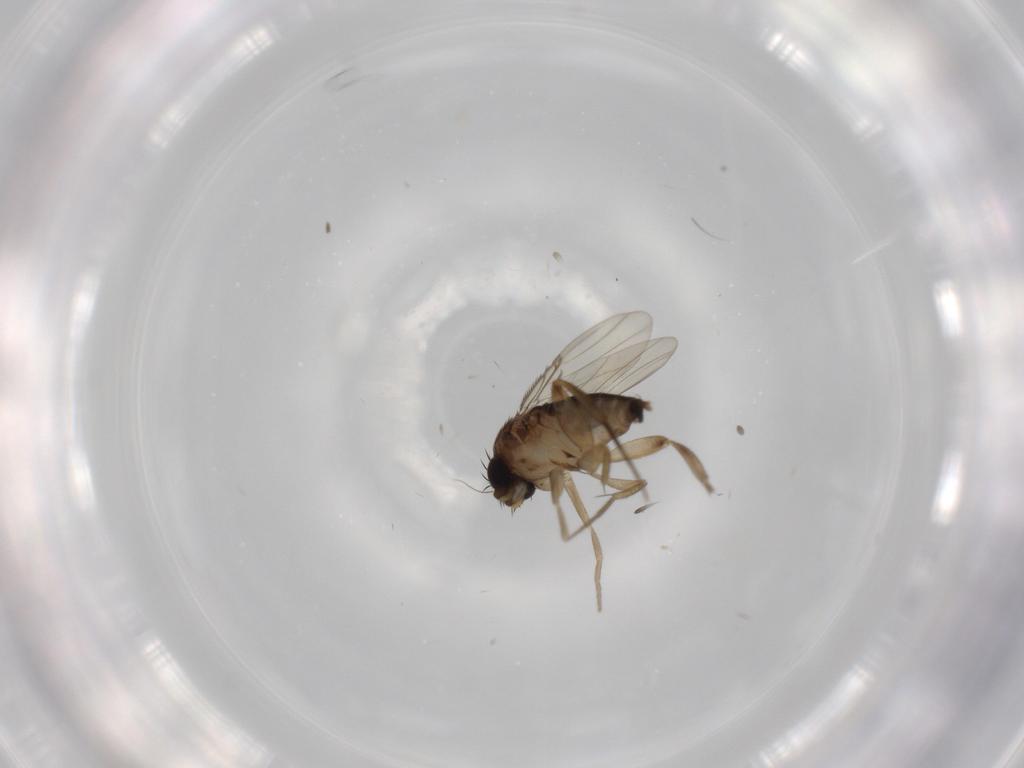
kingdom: Animalia
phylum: Arthropoda
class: Insecta
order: Diptera
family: Phoridae
